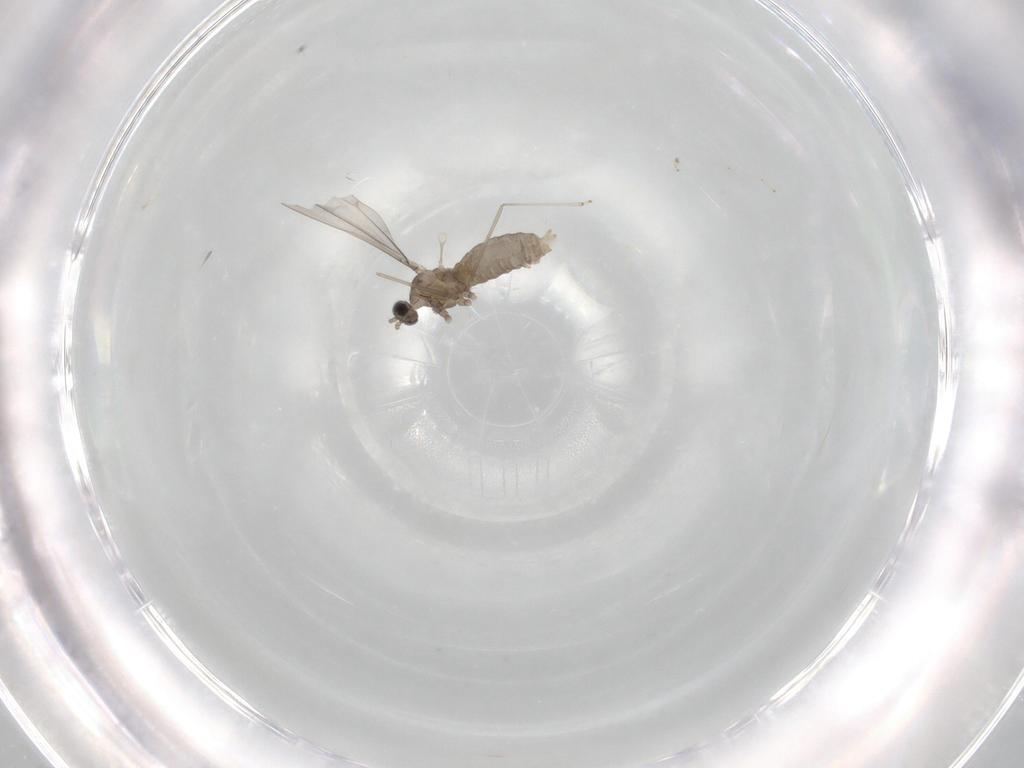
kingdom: Animalia
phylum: Arthropoda
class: Insecta
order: Diptera
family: Cecidomyiidae
